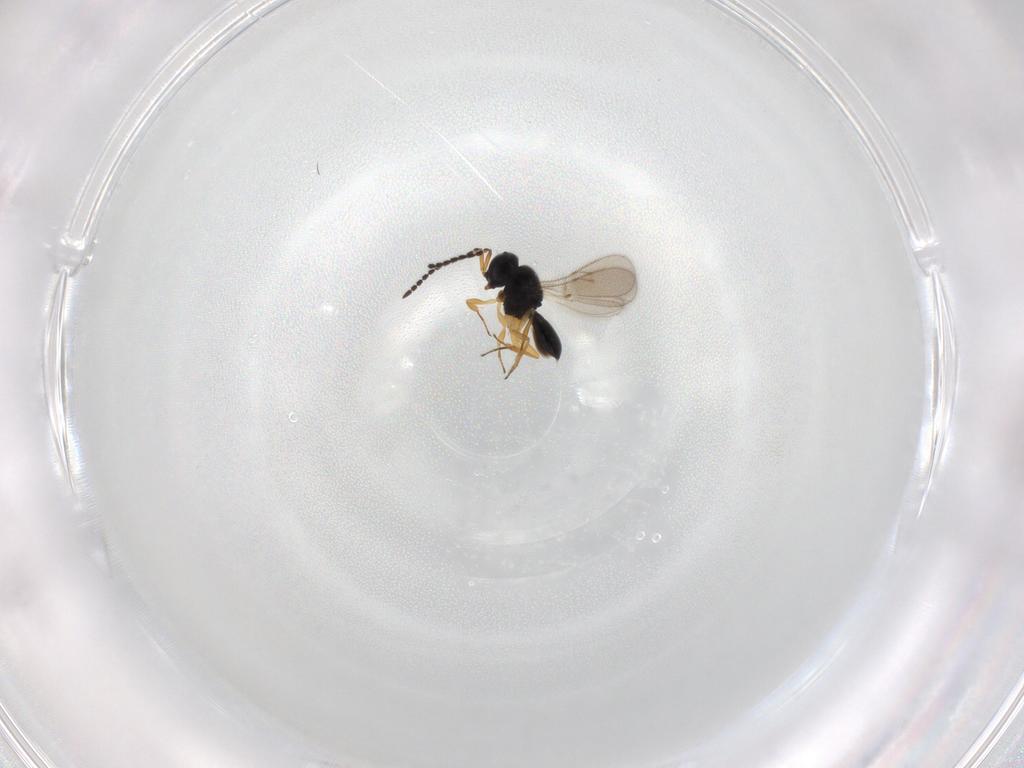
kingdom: Animalia
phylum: Arthropoda
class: Insecta
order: Hymenoptera
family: Scelionidae
